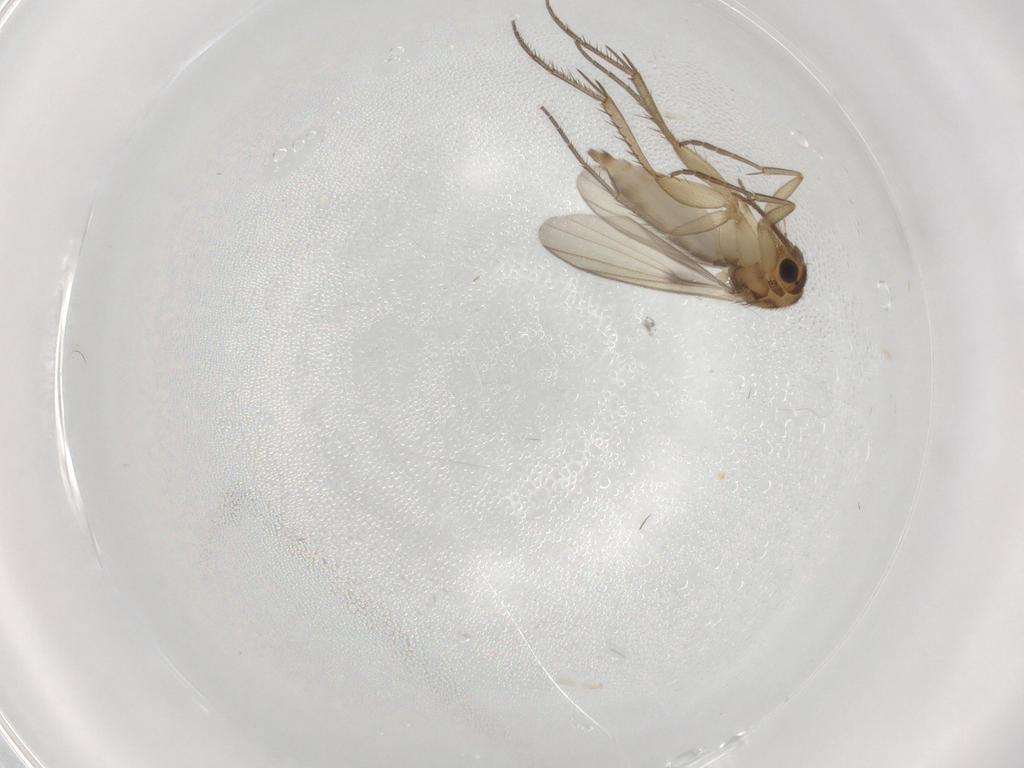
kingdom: Animalia
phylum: Arthropoda
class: Insecta
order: Diptera
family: Mycetophilidae
